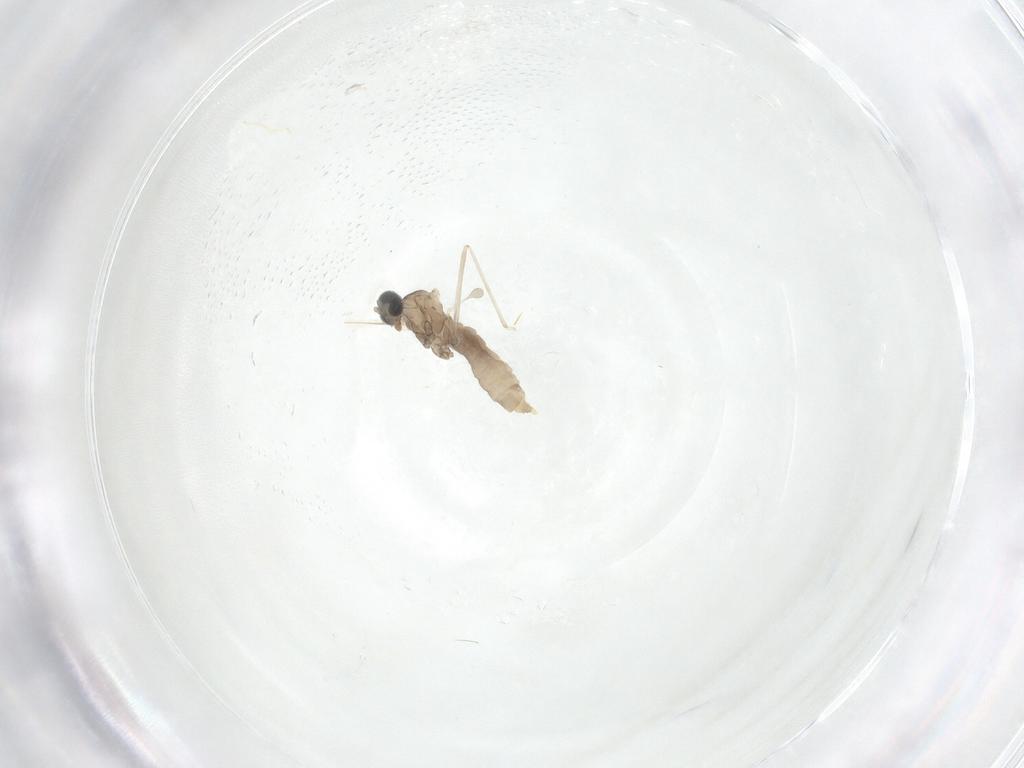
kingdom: Animalia
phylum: Arthropoda
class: Insecta
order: Diptera
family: Cecidomyiidae
